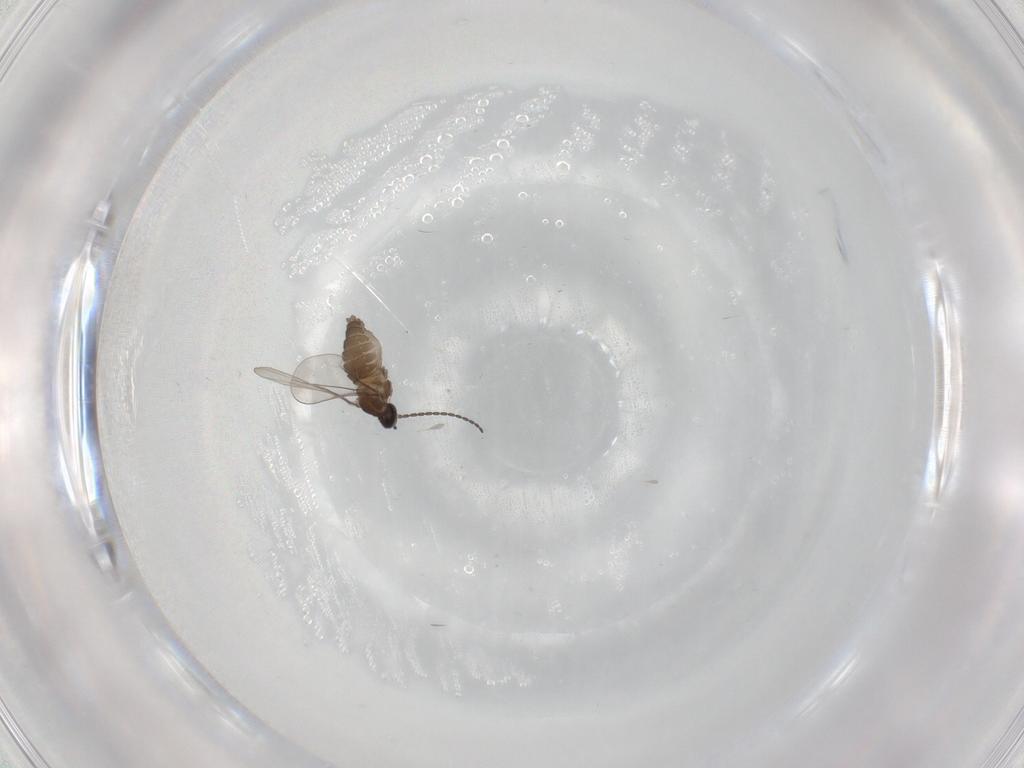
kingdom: Animalia
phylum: Arthropoda
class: Insecta
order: Diptera
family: Cecidomyiidae
